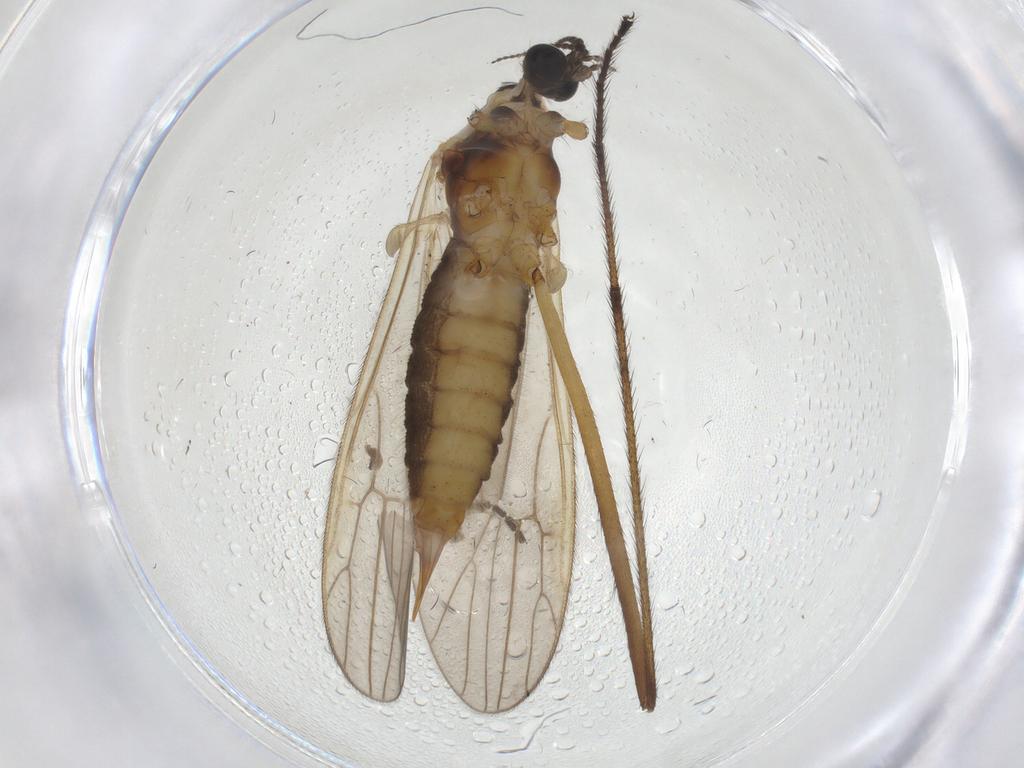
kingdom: Animalia
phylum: Arthropoda
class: Insecta
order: Diptera
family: Agromyzidae
